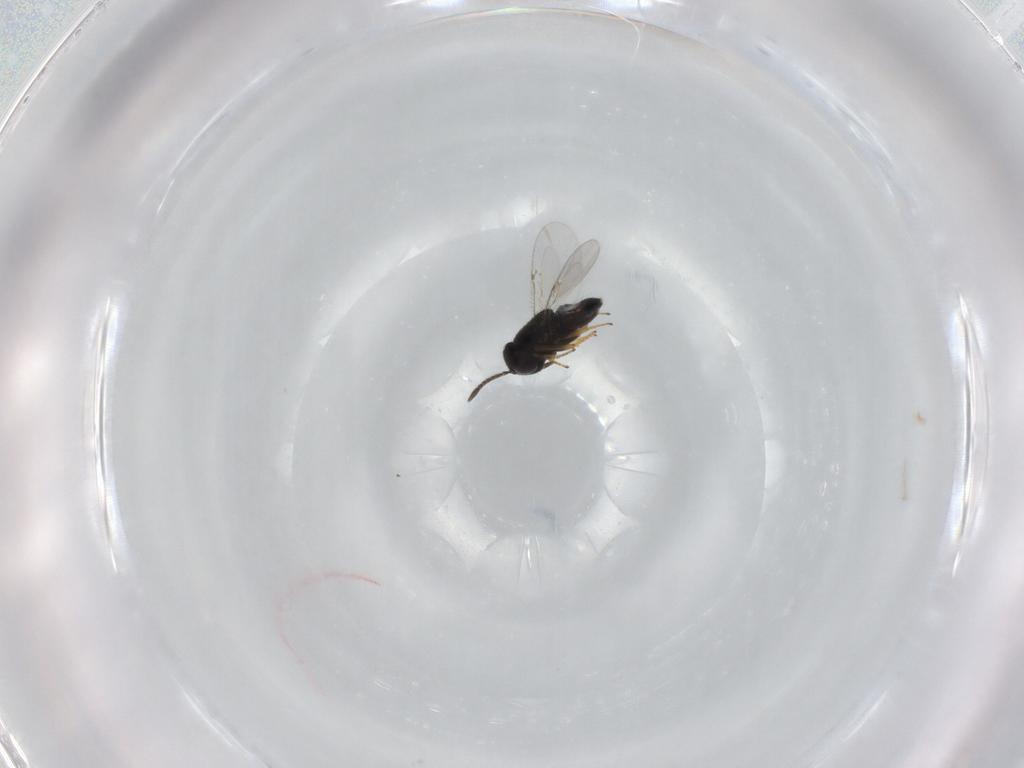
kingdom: Animalia
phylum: Arthropoda
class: Insecta
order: Hymenoptera
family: Encyrtidae
